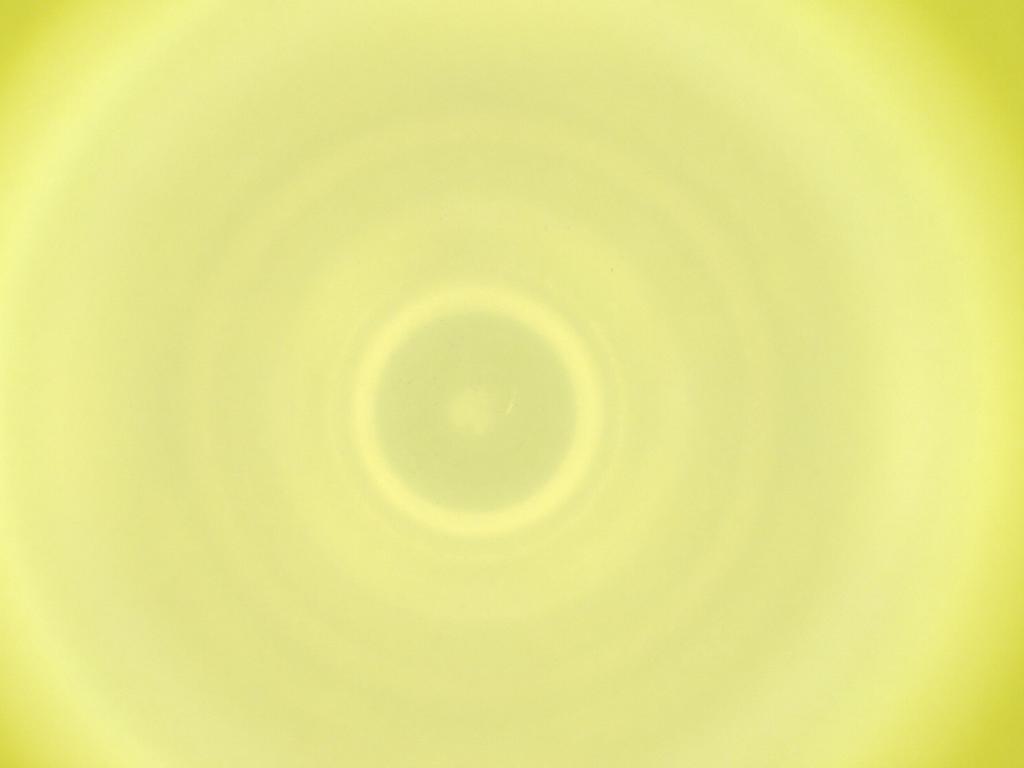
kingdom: Animalia
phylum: Arthropoda
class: Insecta
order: Diptera
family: Cecidomyiidae
